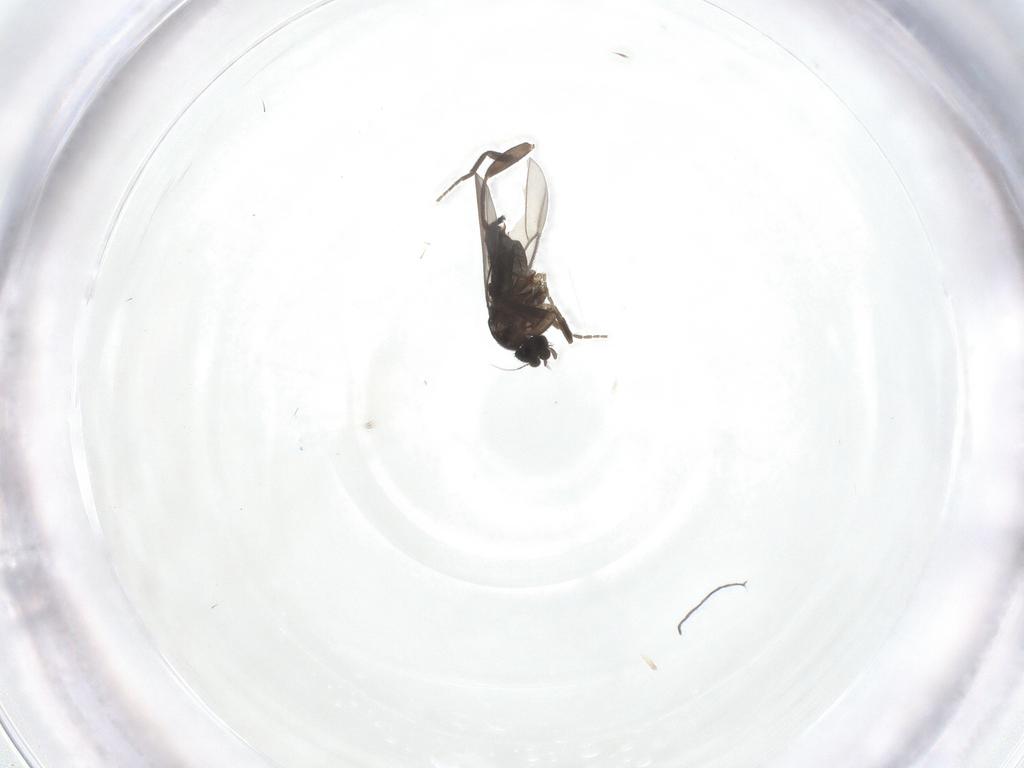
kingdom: Animalia
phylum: Arthropoda
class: Insecta
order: Diptera
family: Phoridae
